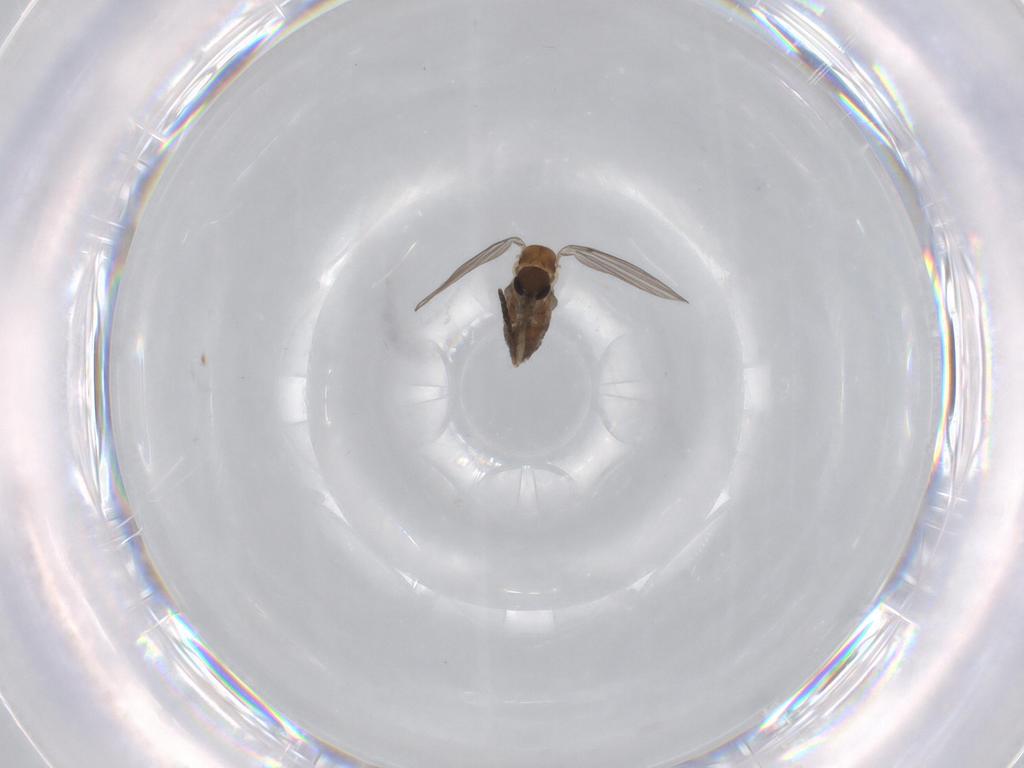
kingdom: Animalia
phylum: Arthropoda
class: Insecta
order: Diptera
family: Psychodidae
